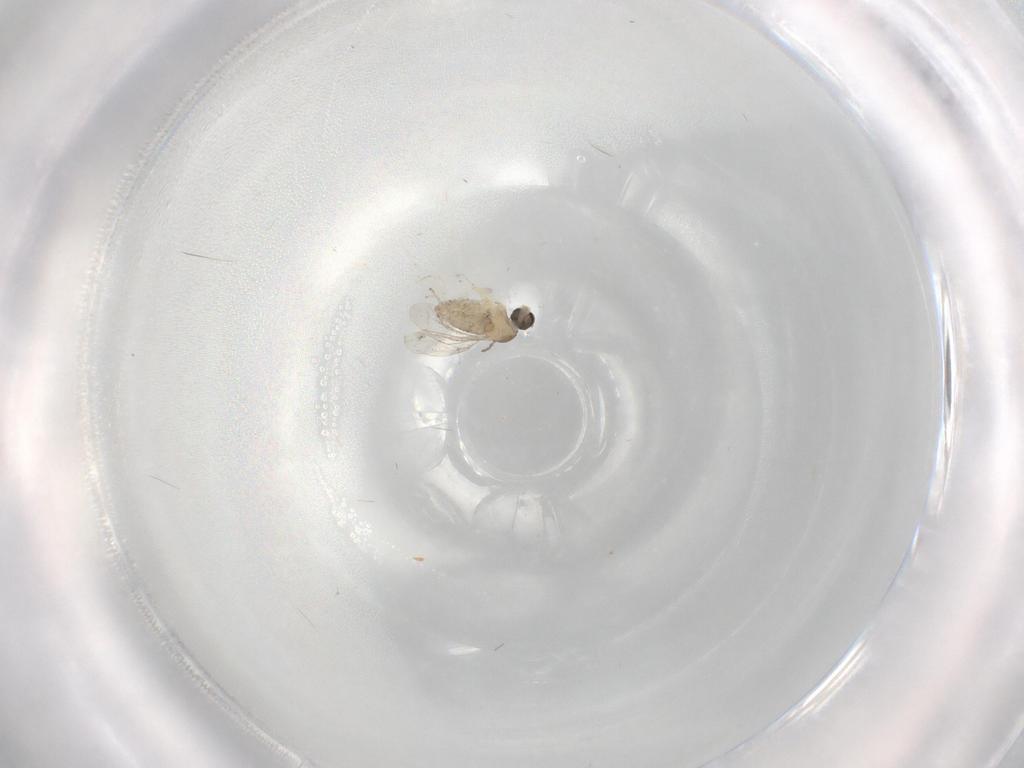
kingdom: Animalia
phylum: Arthropoda
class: Insecta
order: Diptera
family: Cecidomyiidae
